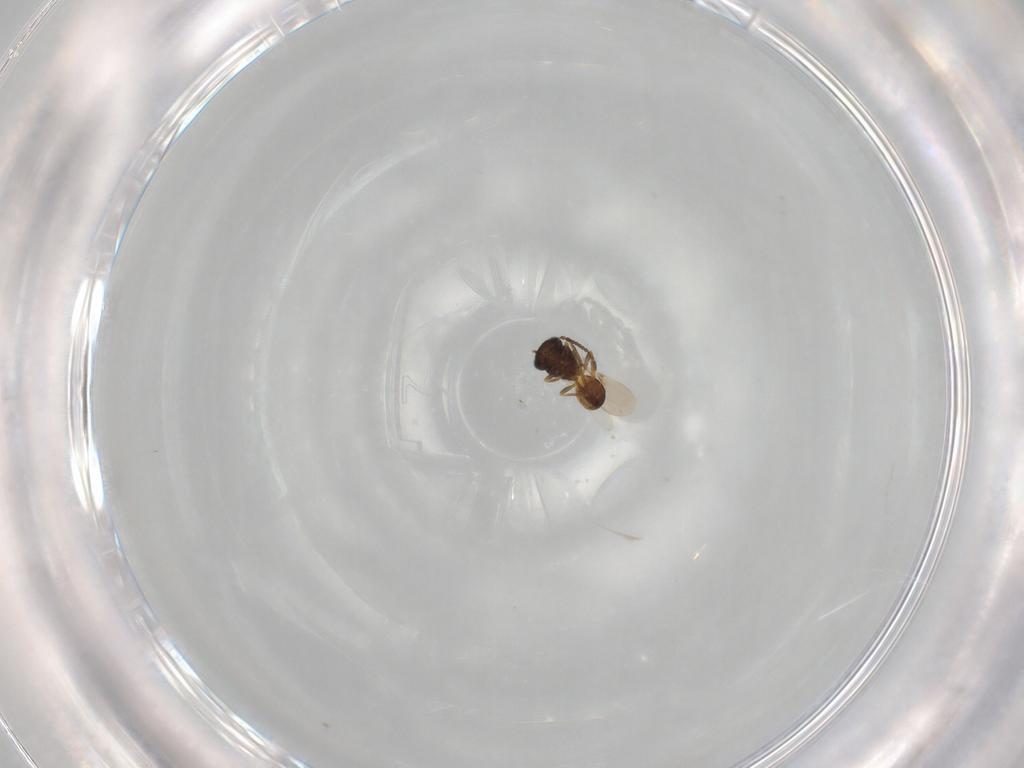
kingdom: Animalia
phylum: Arthropoda
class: Insecta
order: Hymenoptera
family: Scelionidae
